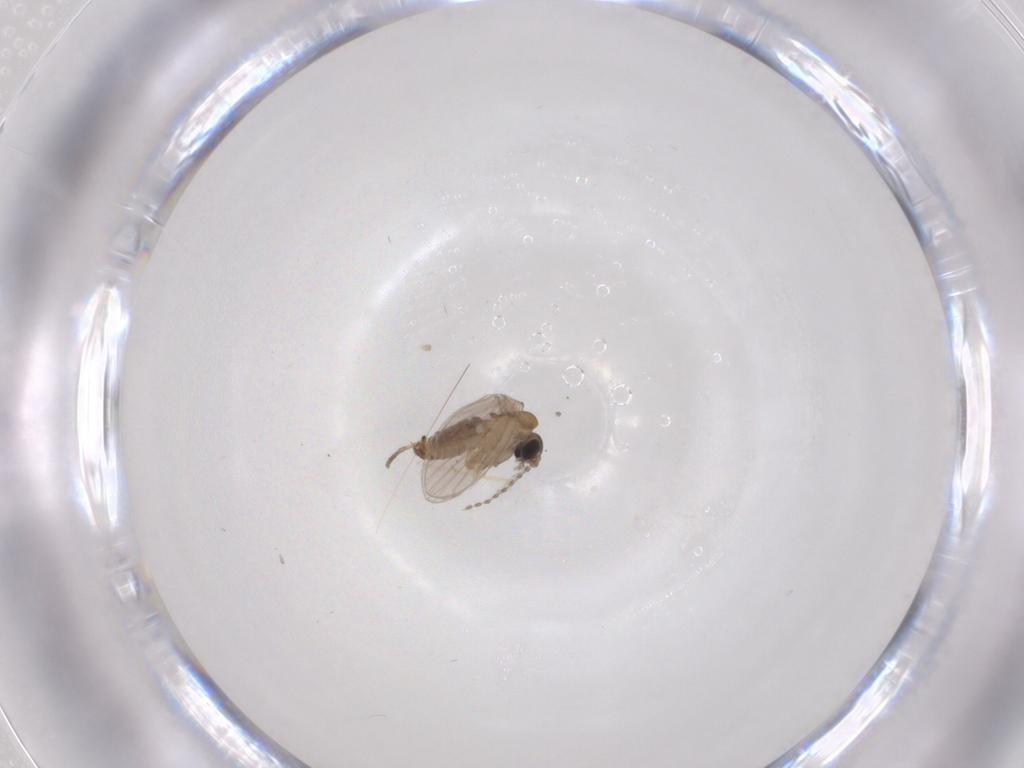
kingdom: Animalia
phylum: Arthropoda
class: Insecta
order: Diptera
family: Psychodidae
